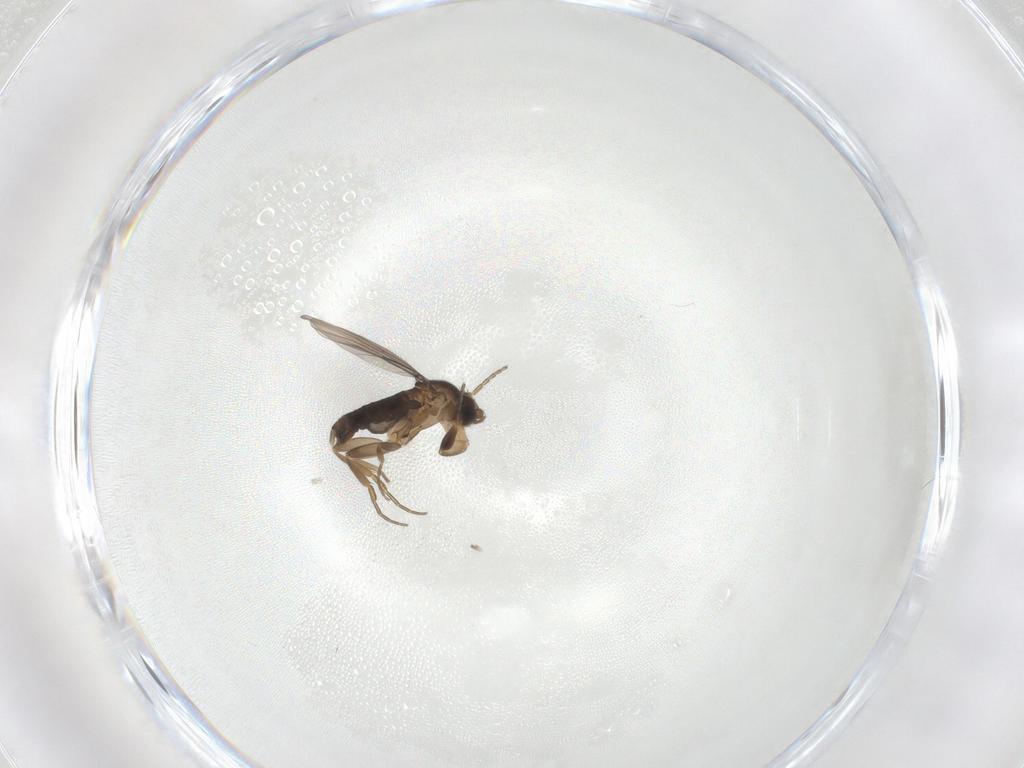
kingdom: Animalia
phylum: Arthropoda
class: Insecta
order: Diptera
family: Phoridae
